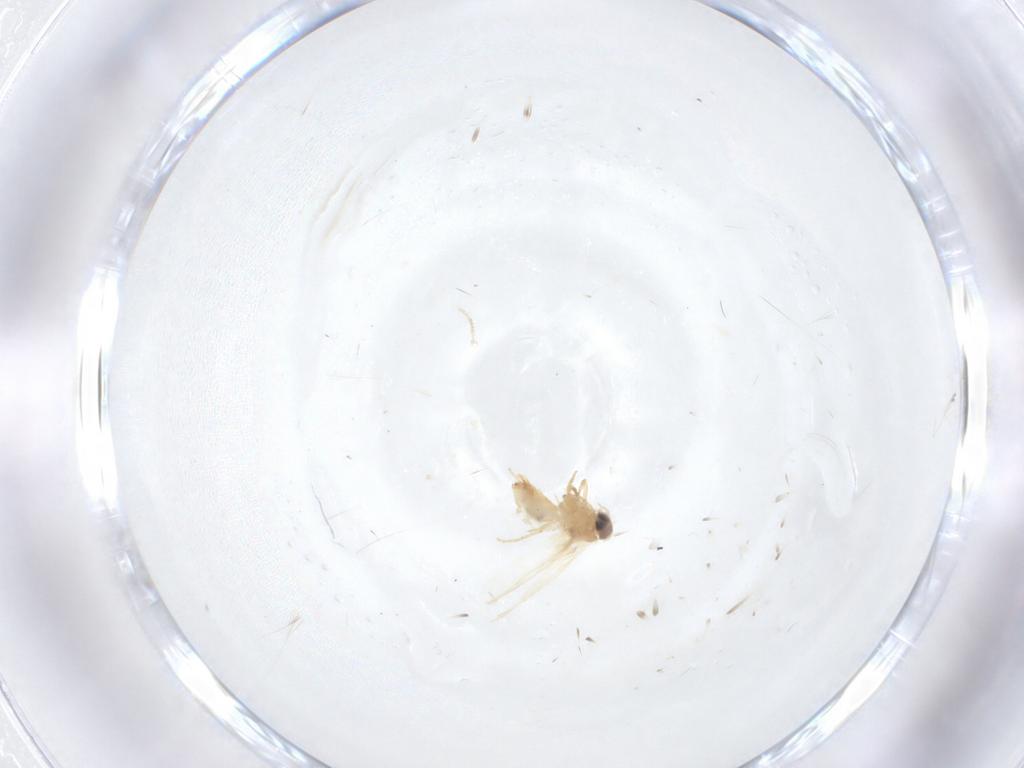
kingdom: Animalia
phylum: Arthropoda
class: Insecta
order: Lepidoptera
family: Crambidae
